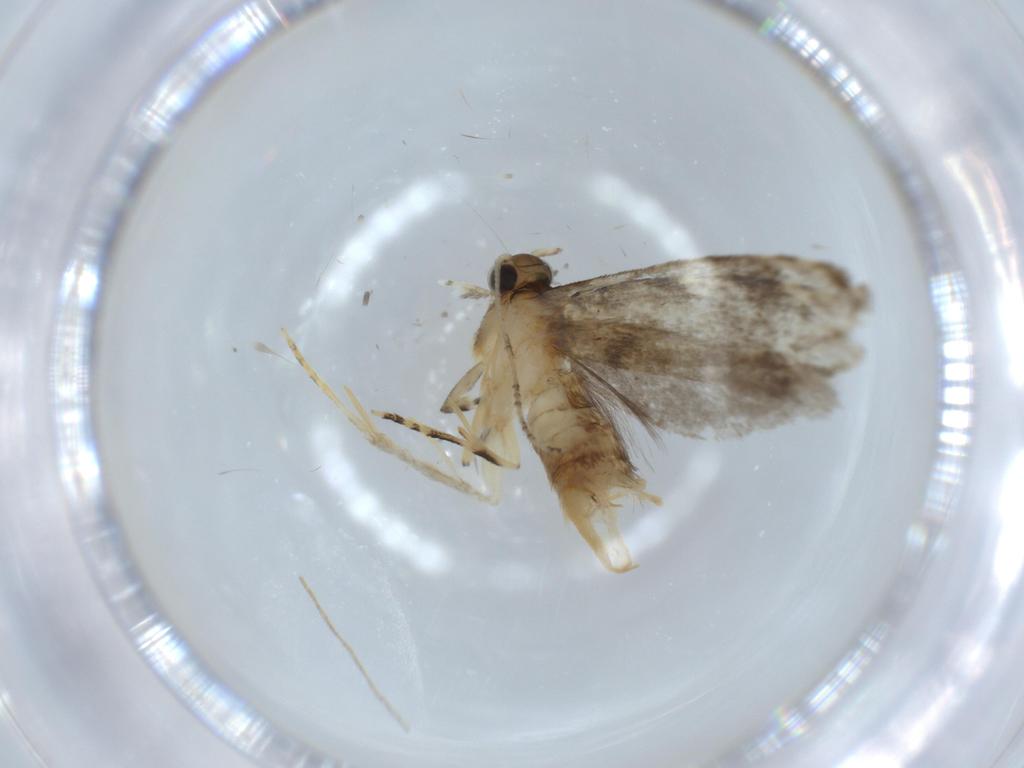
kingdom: Animalia
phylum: Arthropoda
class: Insecta
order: Lepidoptera
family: Tineidae
